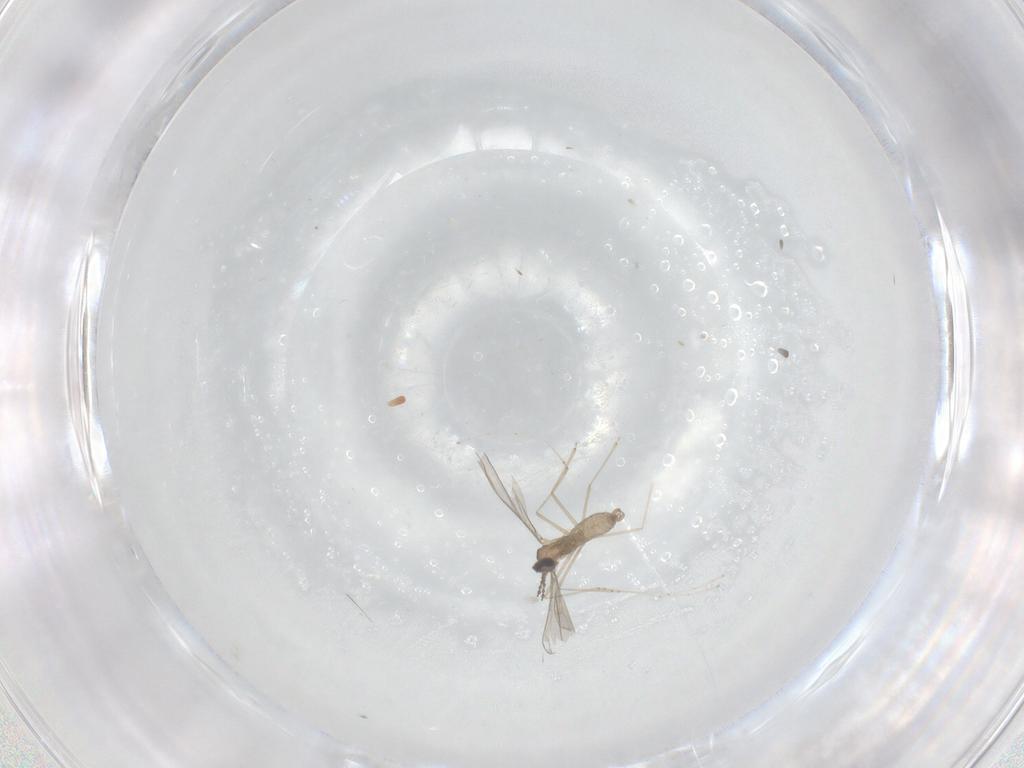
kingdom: Animalia
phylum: Arthropoda
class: Insecta
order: Diptera
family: Cecidomyiidae
